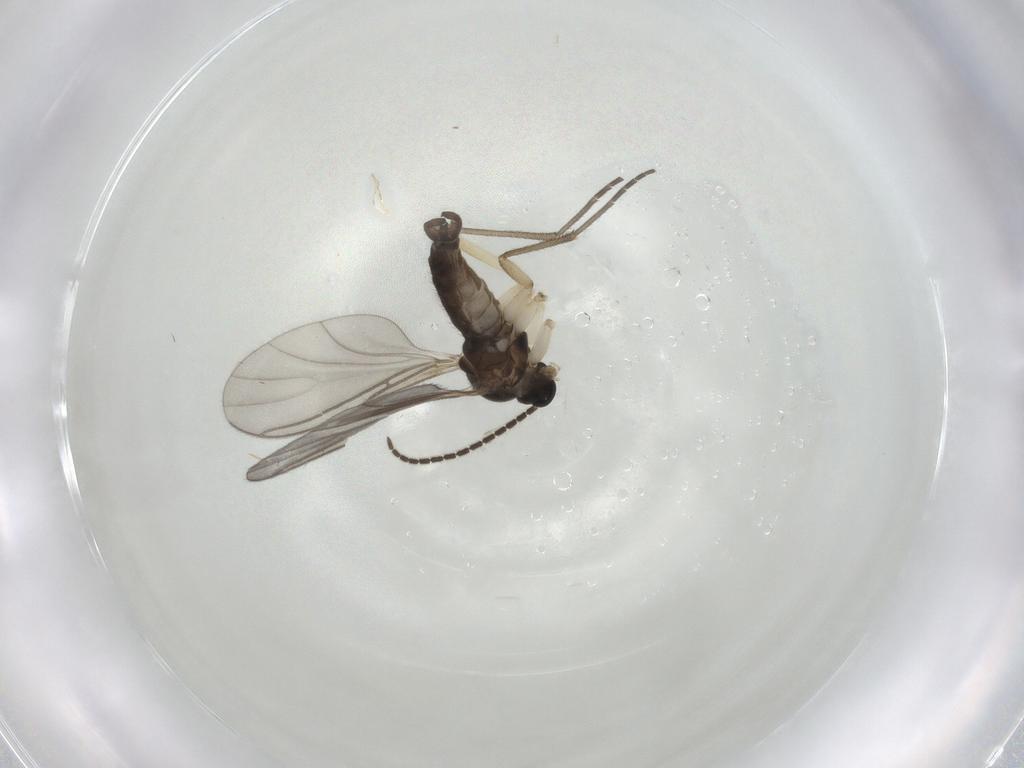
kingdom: Animalia
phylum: Arthropoda
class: Insecta
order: Diptera
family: Sciaridae
